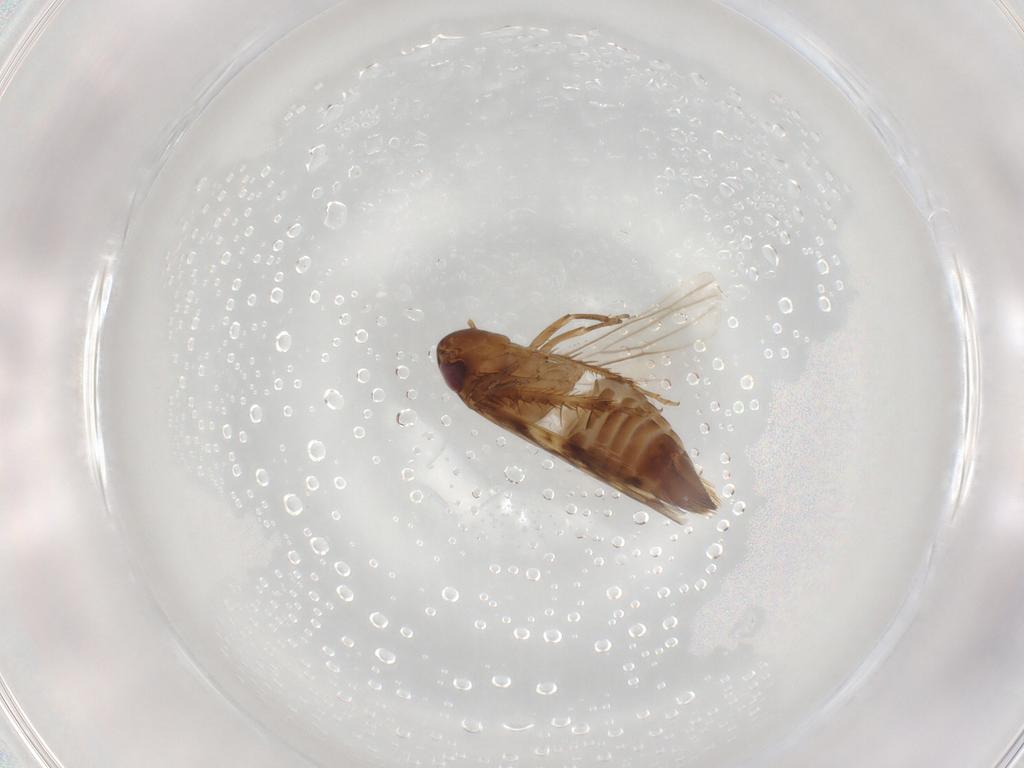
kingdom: Animalia
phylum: Arthropoda
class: Insecta
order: Hemiptera
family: Cicadellidae
